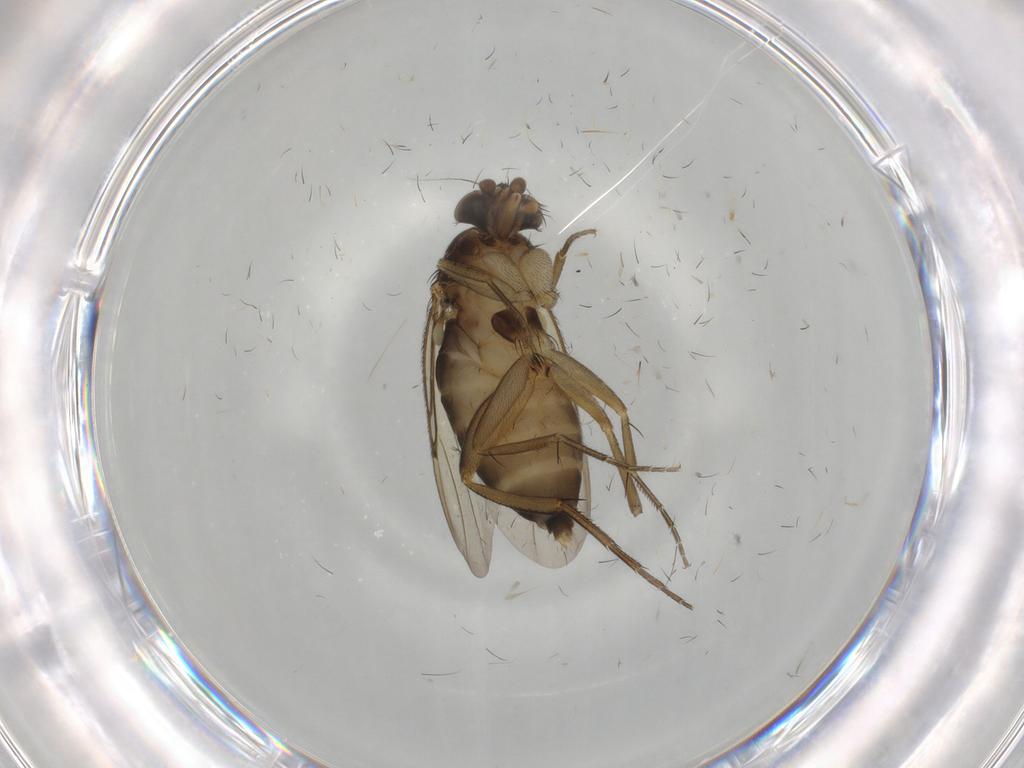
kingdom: Animalia
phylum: Arthropoda
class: Insecta
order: Diptera
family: Phoridae
